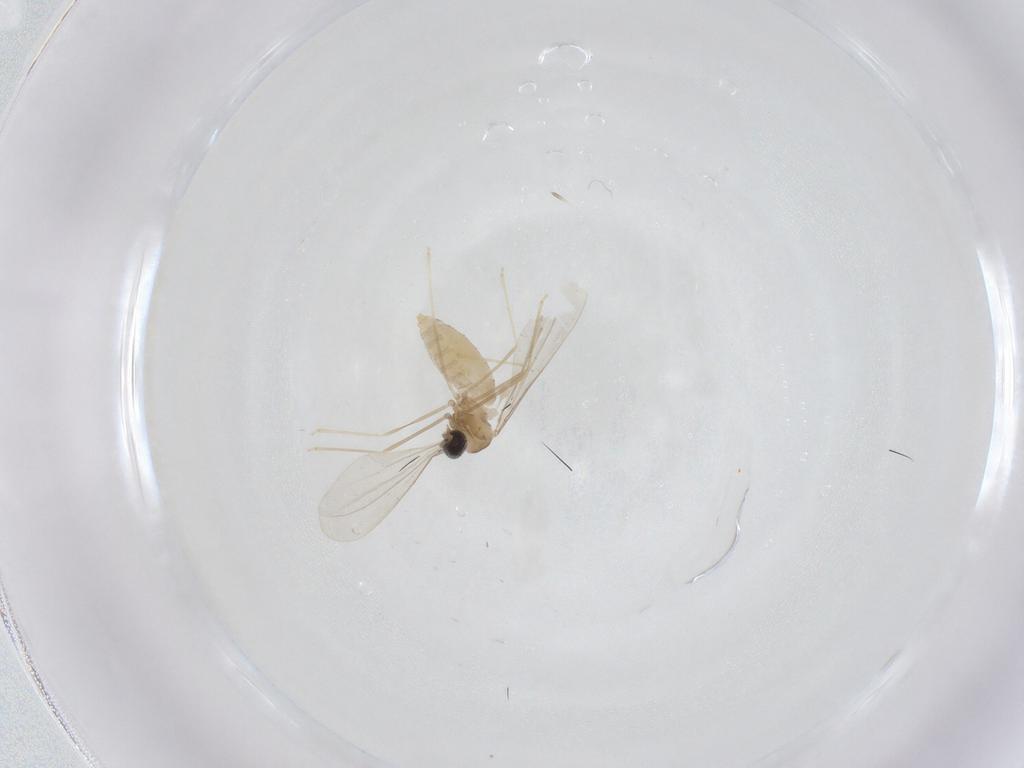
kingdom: Animalia
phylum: Arthropoda
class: Insecta
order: Diptera
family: Cecidomyiidae
